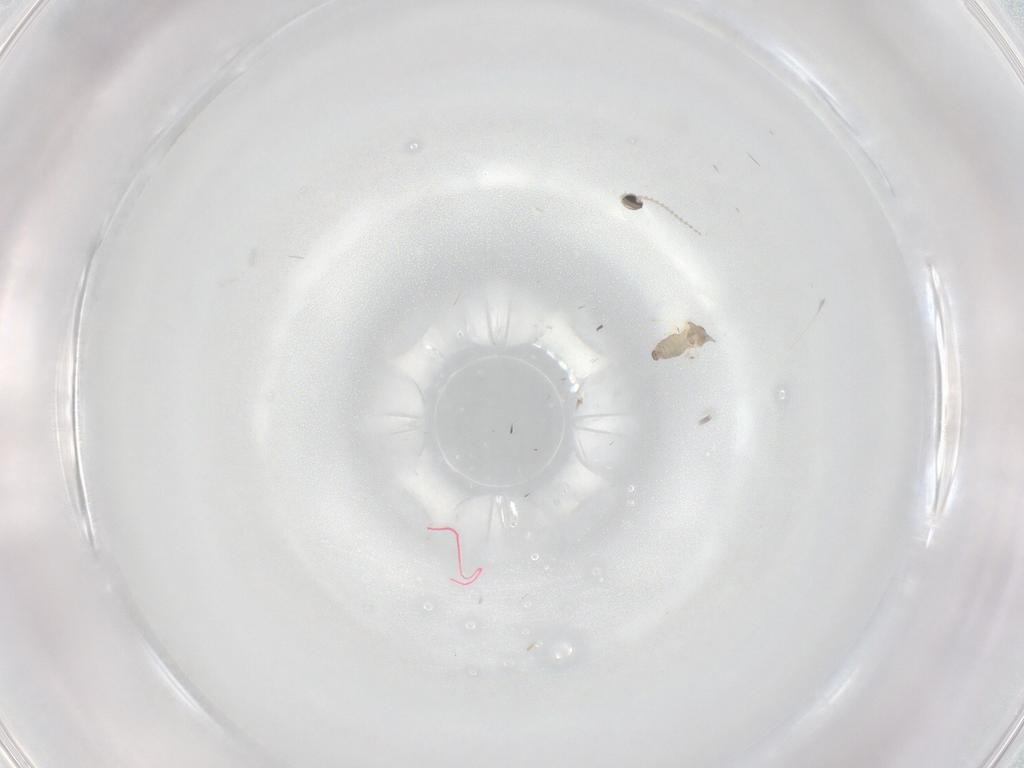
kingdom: Animalia
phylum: Arthropoda
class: Insecta
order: Diptera
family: Cecidomyiidae
